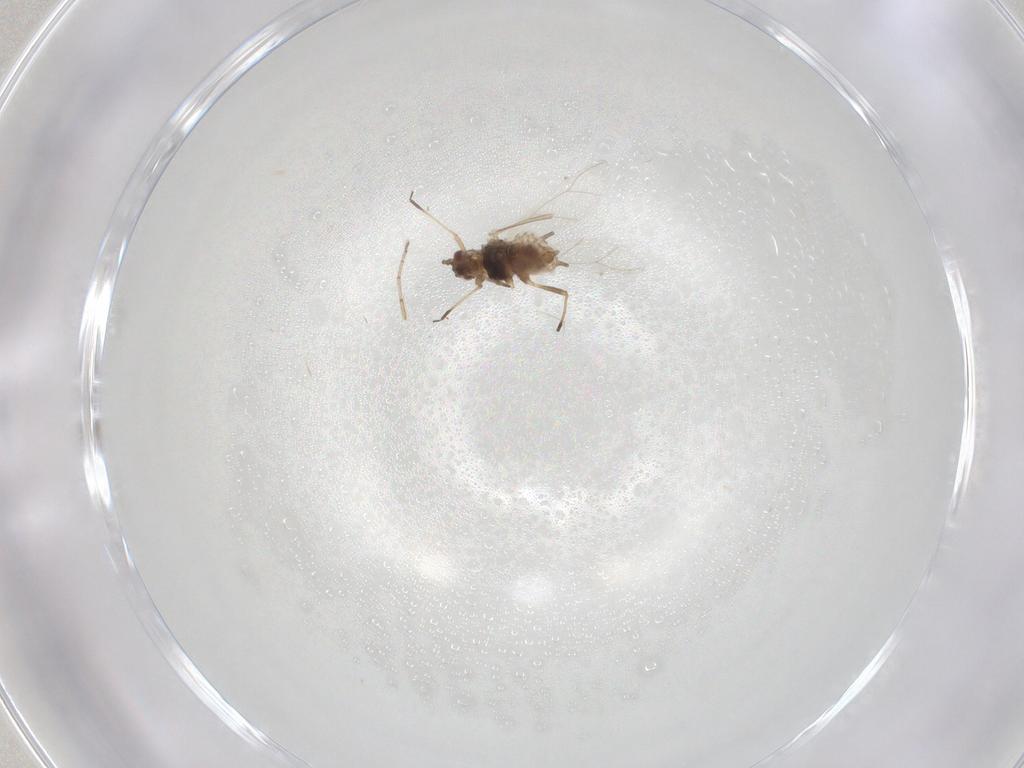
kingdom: Animalia
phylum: Arthropoda
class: Insecta
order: Hemiptera
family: Aphididae
